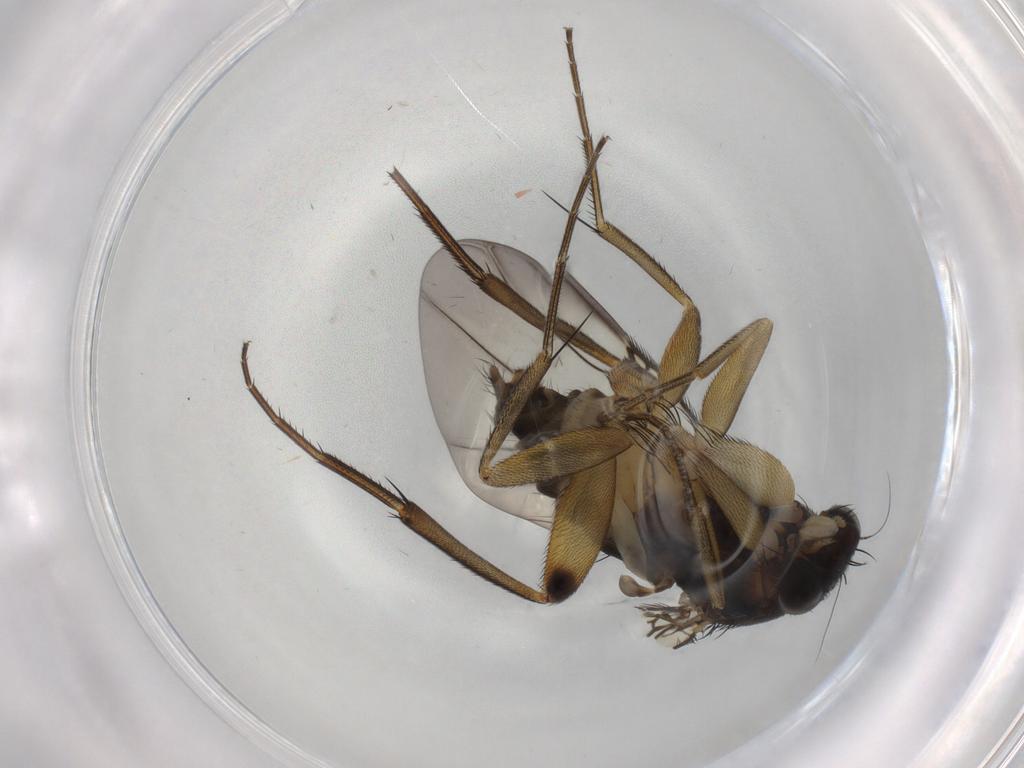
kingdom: Animalia
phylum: Arthropoda
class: Insecta
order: Diptera
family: Phoridae
